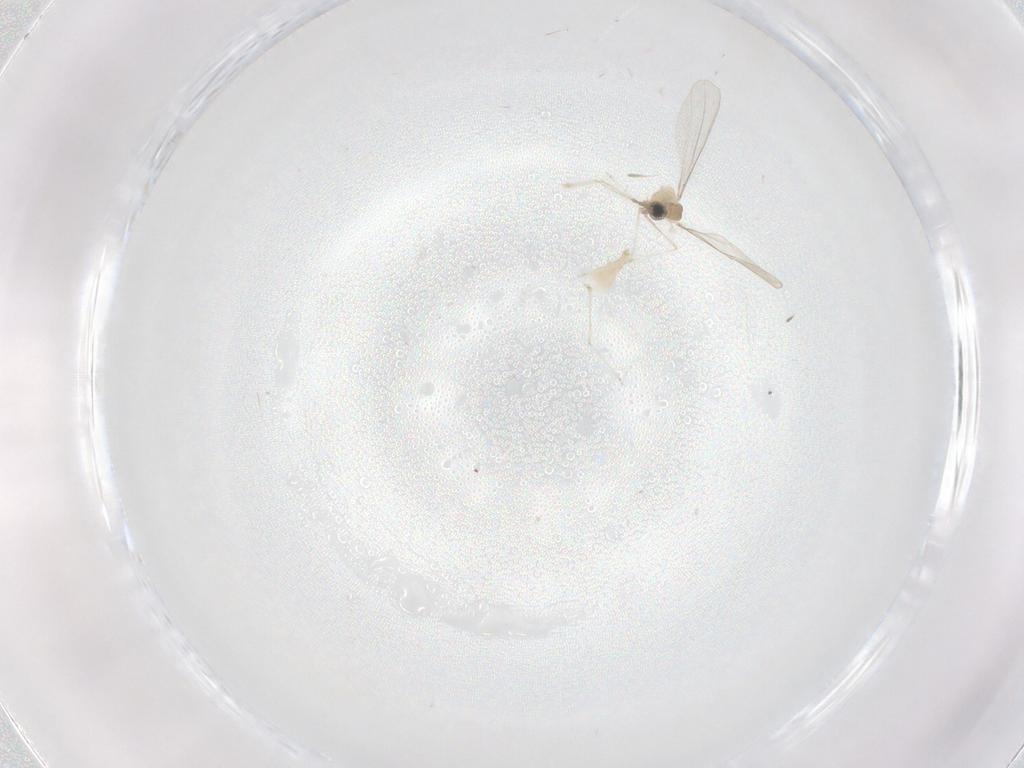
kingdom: Animalia
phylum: Arthropoda
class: Insecta
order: Diptera
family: Cecidomyiidae
